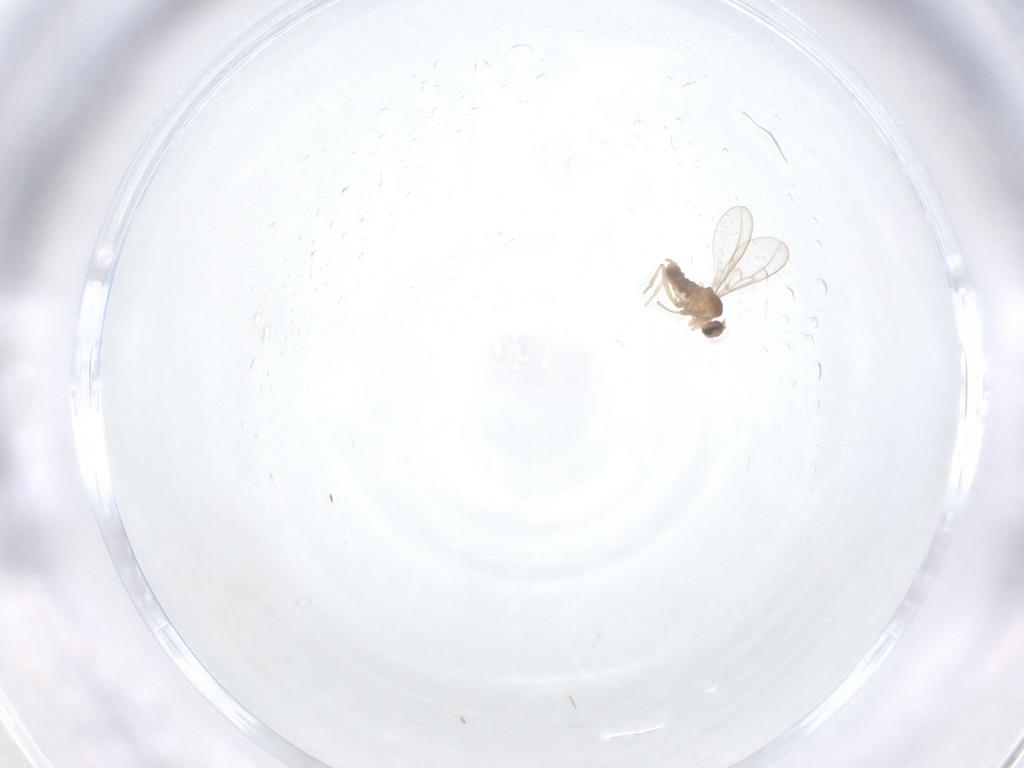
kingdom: Animalia
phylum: Arthropoda
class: Insecta
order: Diptera
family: Cecidomyiidae
